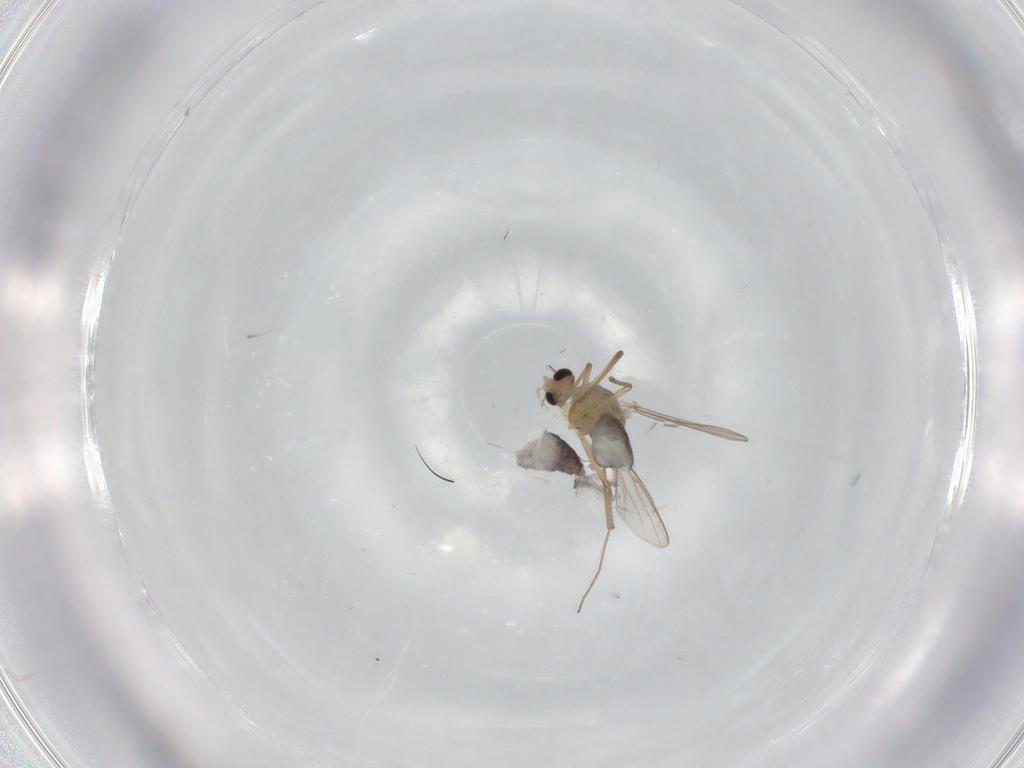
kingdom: Animalia
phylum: Arthropoda
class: Insecta
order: Diptera
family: Chironomidae
